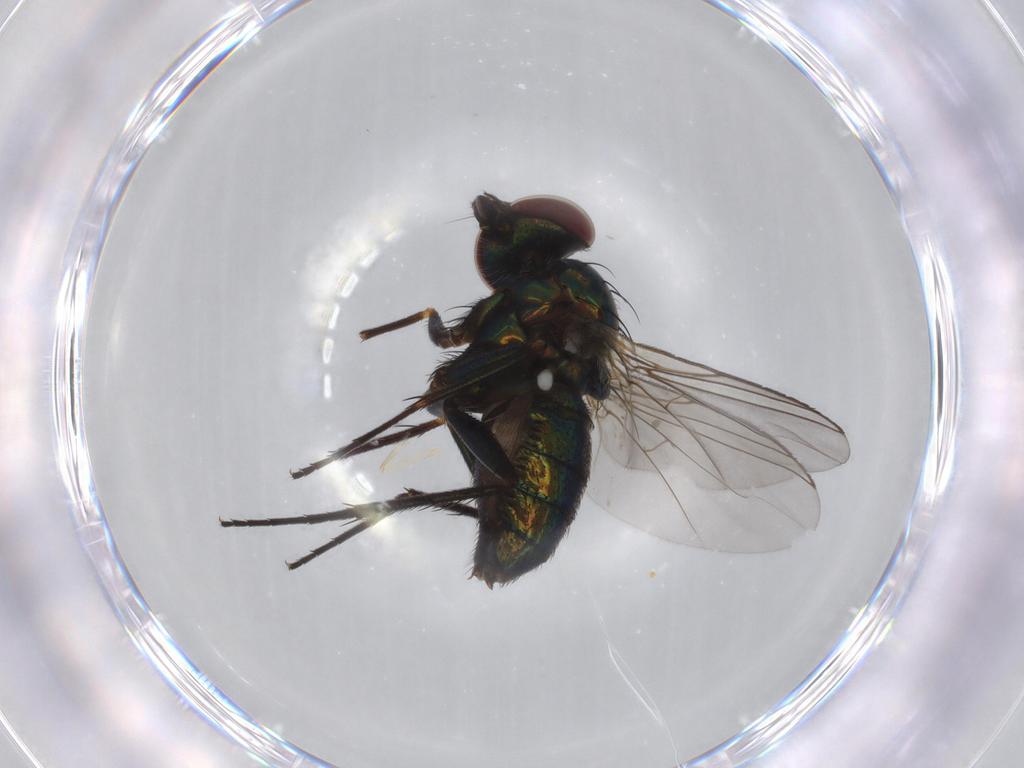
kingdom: Animalia
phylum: Arthropoda
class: Insecta
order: Diptera
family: Dolichopodidae
